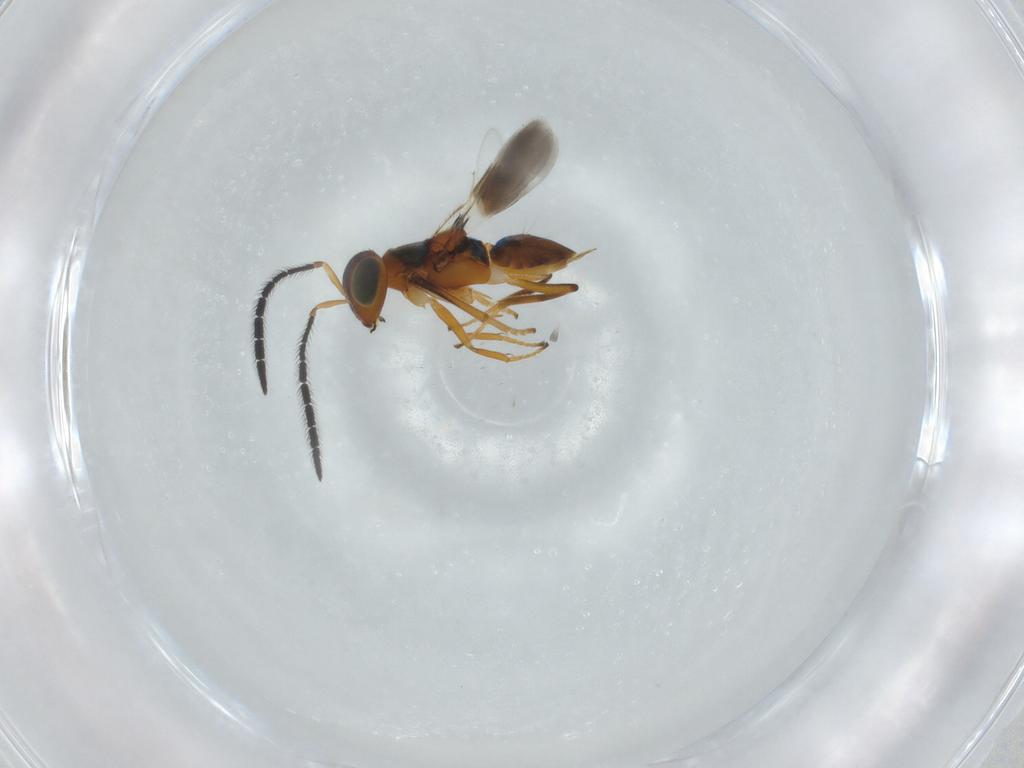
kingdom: Animalia
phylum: Arthropoda
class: Insecta
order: Hymenoptera
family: Encyrtidae
